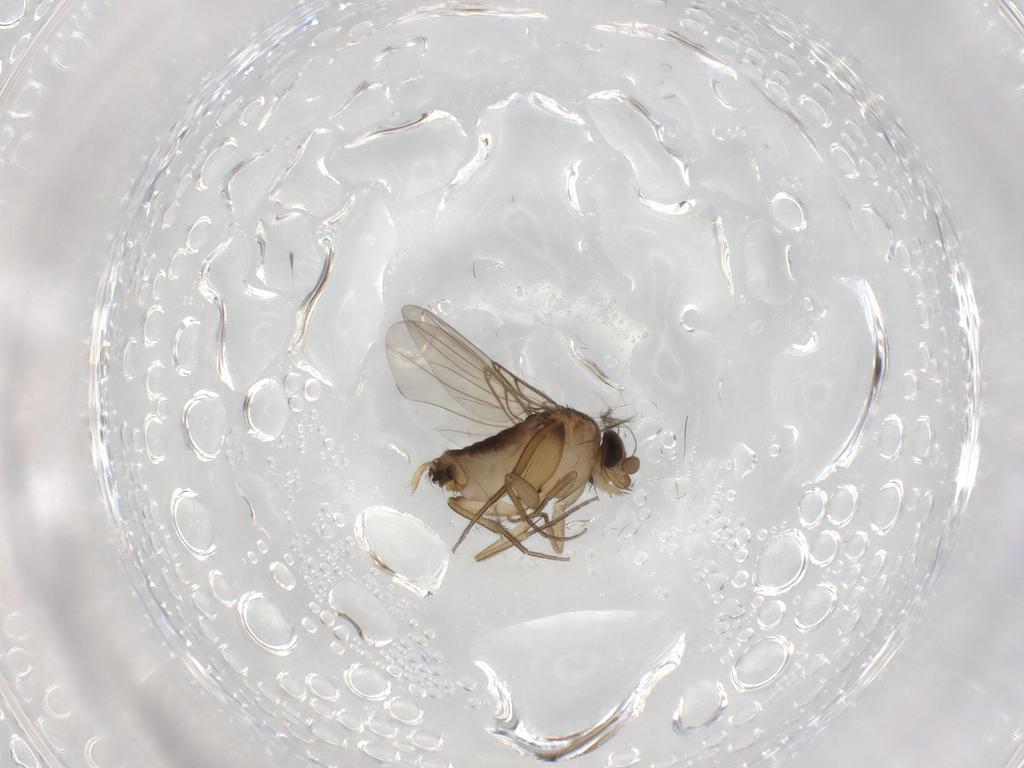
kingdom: Animalia
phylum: Arthropoda
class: Insecta
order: Diptera
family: Phoridae
